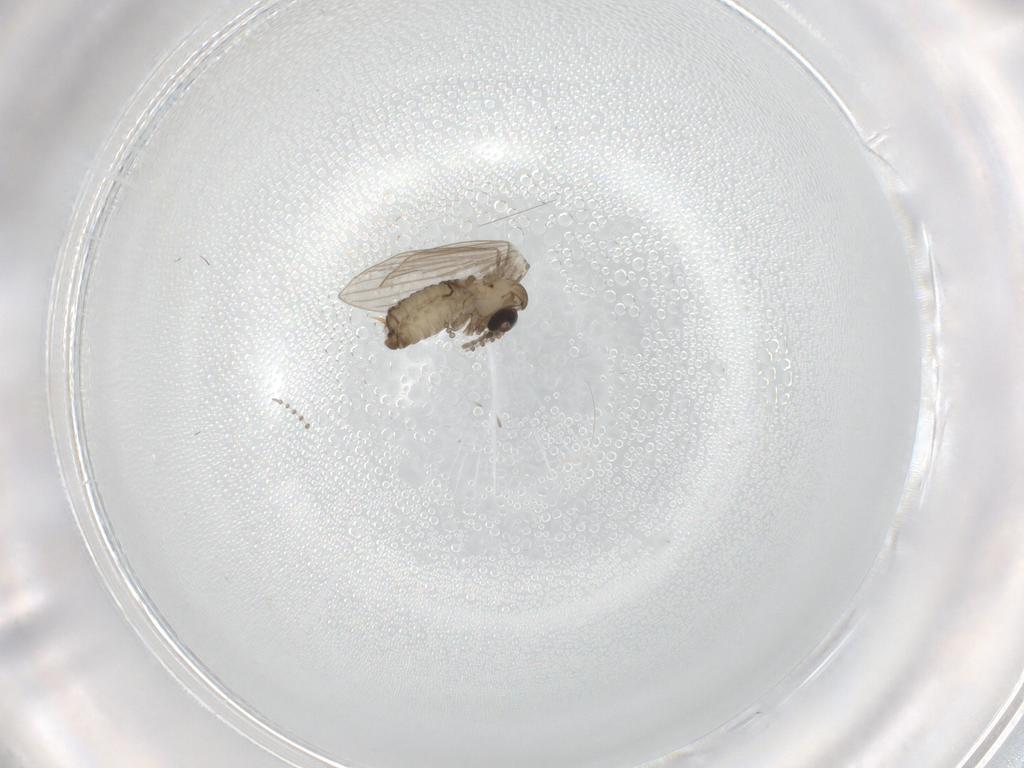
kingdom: Animalia
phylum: Arthropoda
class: Insecta
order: Diptera
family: Psychodidae
